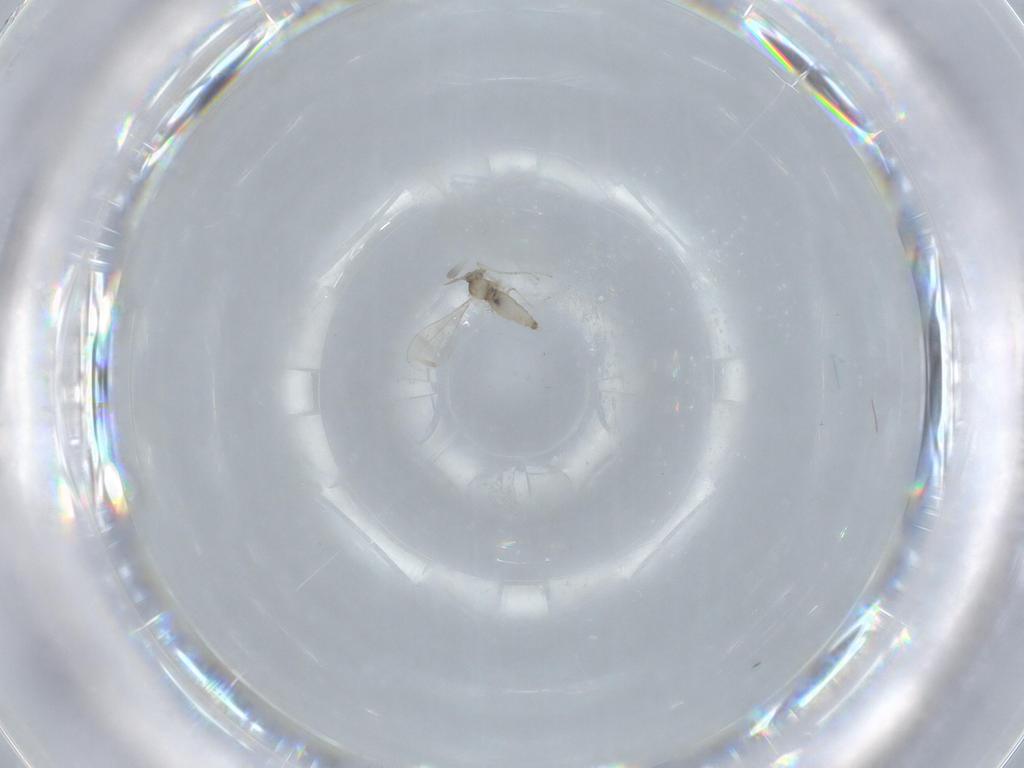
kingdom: Animalia
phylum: Arthropoda
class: Insecta
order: Diptera
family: Cecidomyiidae
